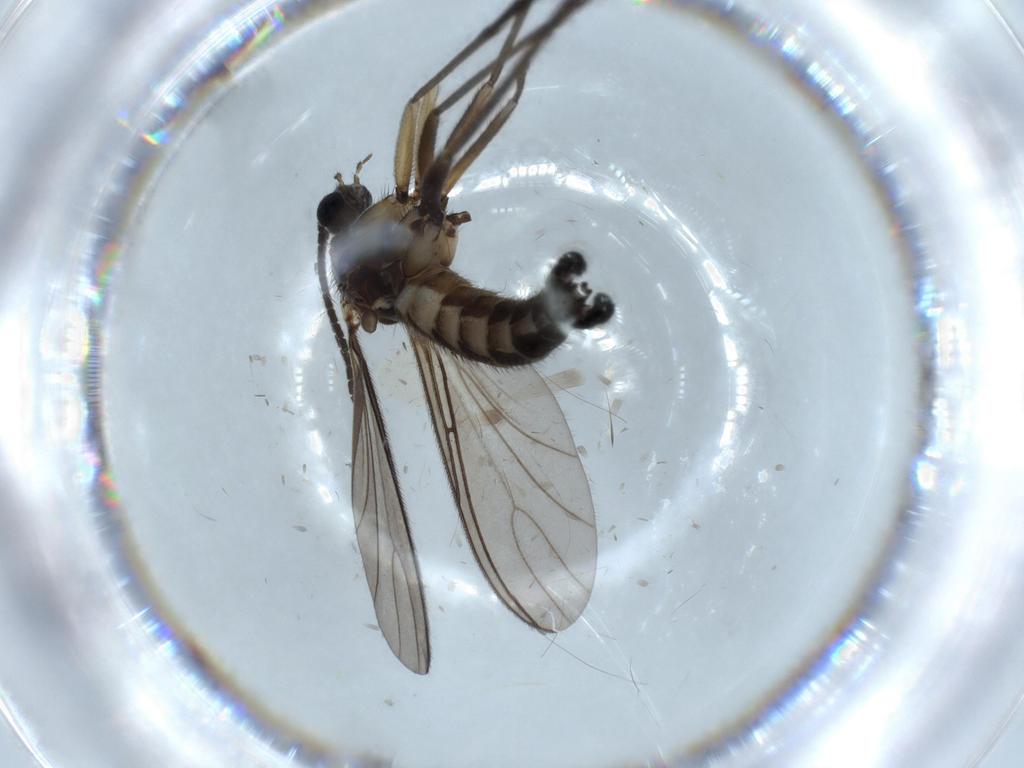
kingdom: Animalia
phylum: Arthropoda
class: Insecta
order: Diptera
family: Sciaridae
